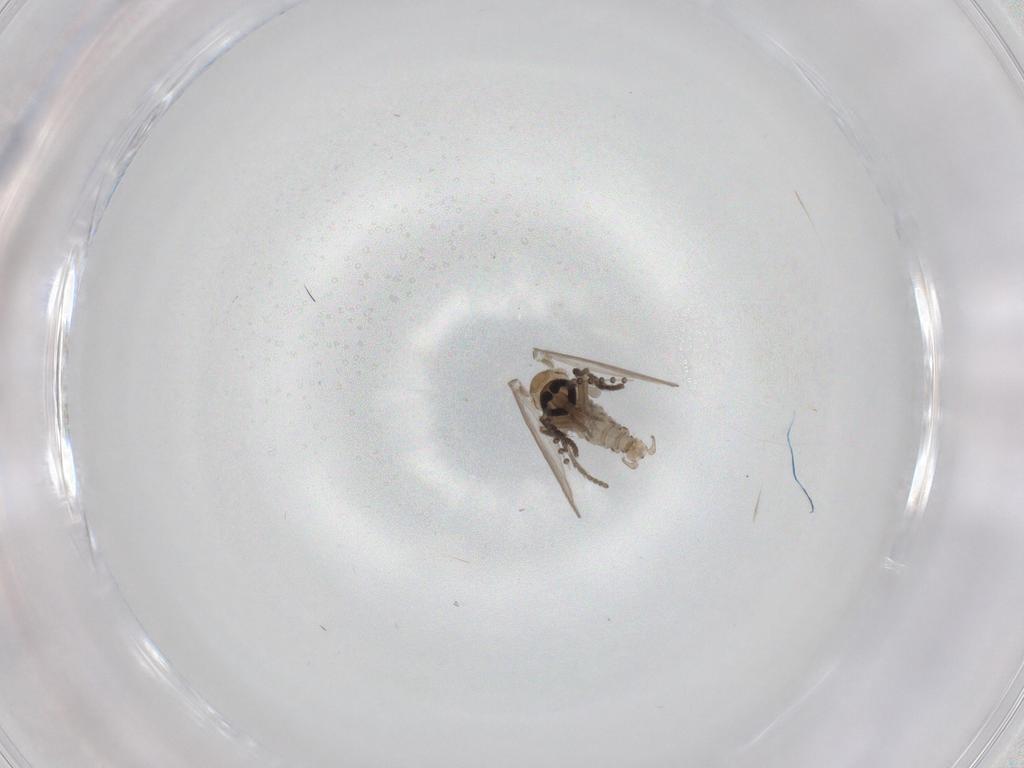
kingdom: Animalia
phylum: Arthropoda
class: Insecta
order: Diptera
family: Psychodidae
